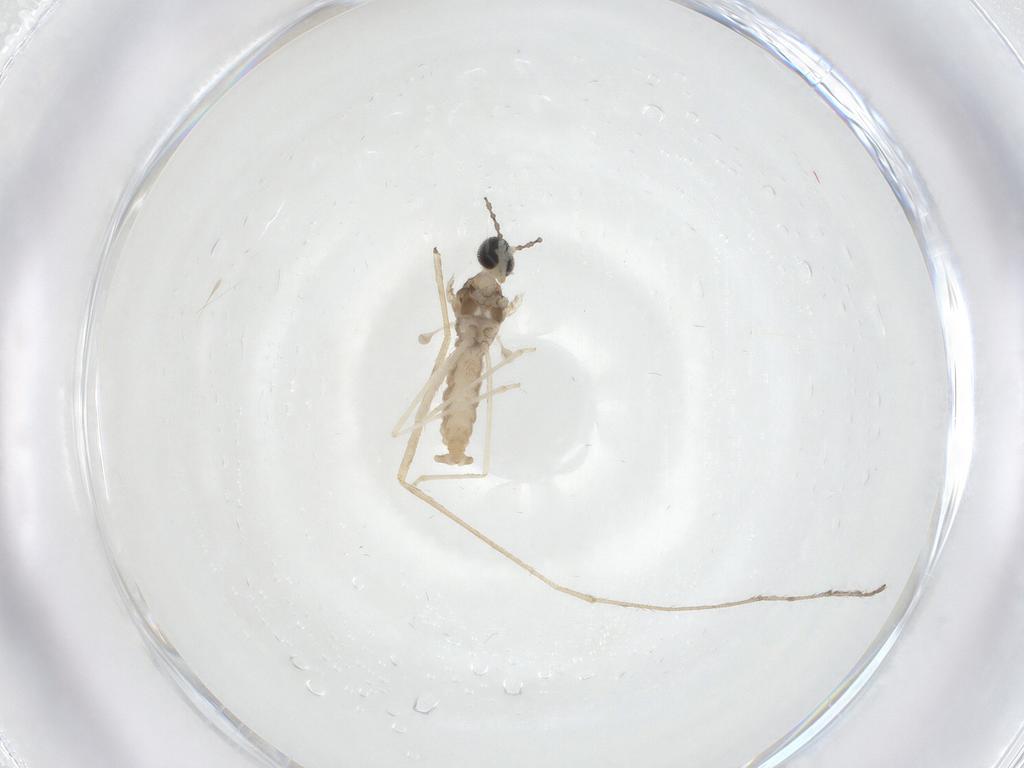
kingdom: Animalia
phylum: Arthropoda
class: Insecta
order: Diptera
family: Limoniidae
